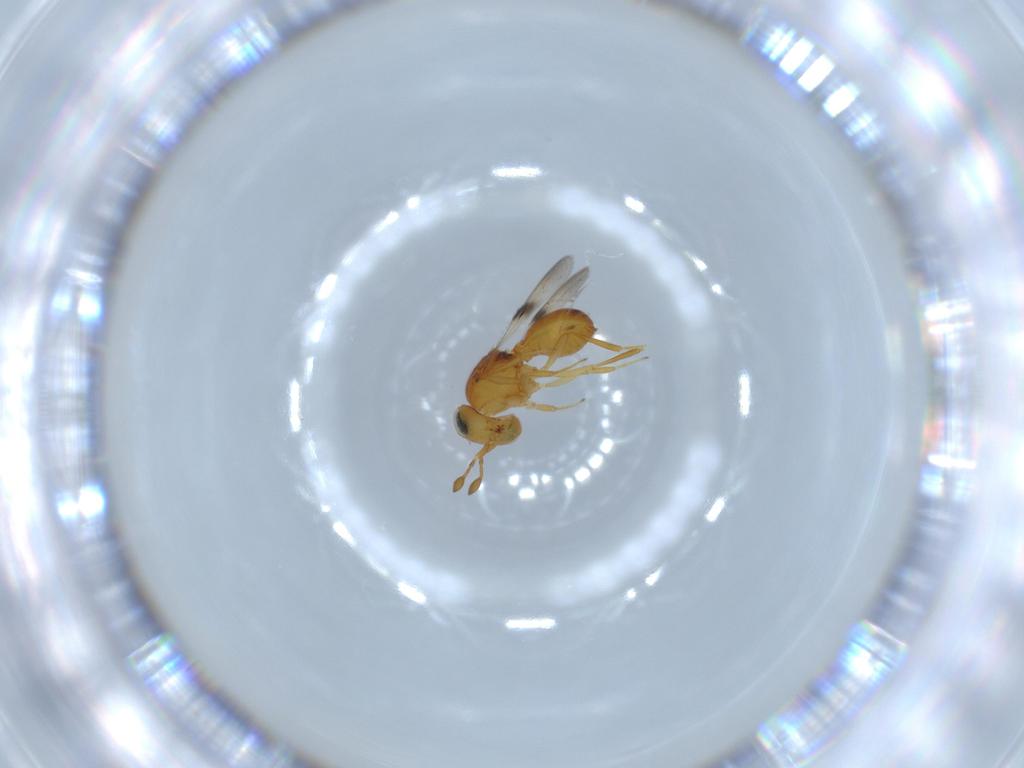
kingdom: Animalia
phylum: Arthropoda
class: Insecta
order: Hymenoptera
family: Scelionidae
